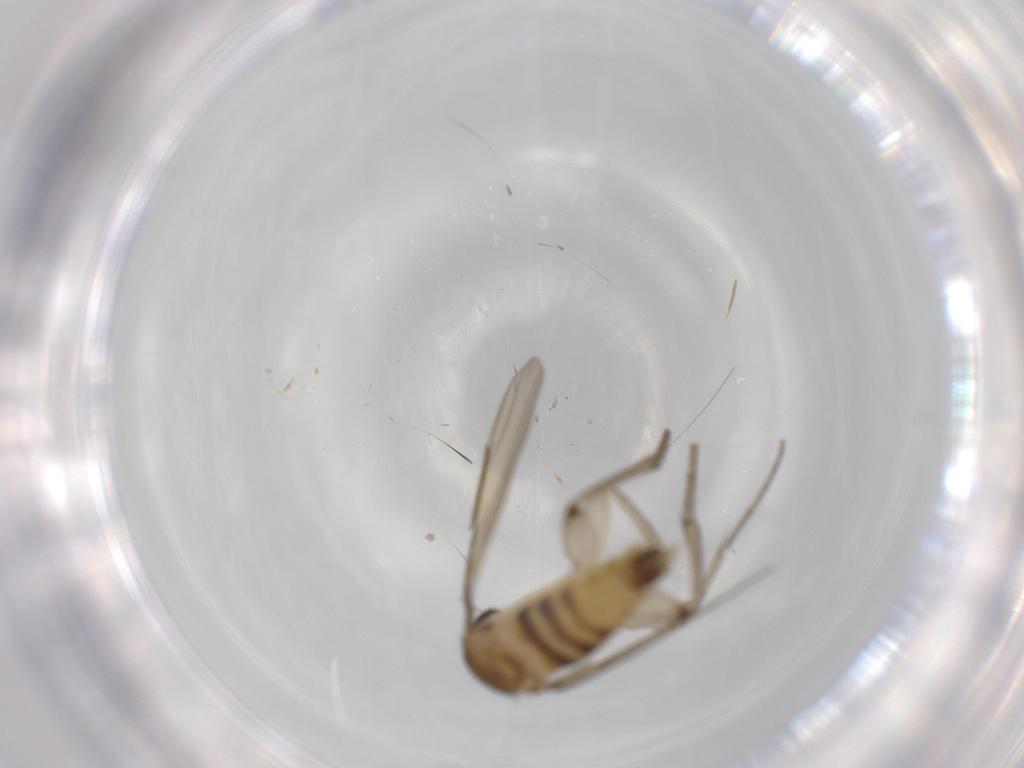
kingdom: Animalia
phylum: Arthropoda
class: Insecta
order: Diptera
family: Phoridae
